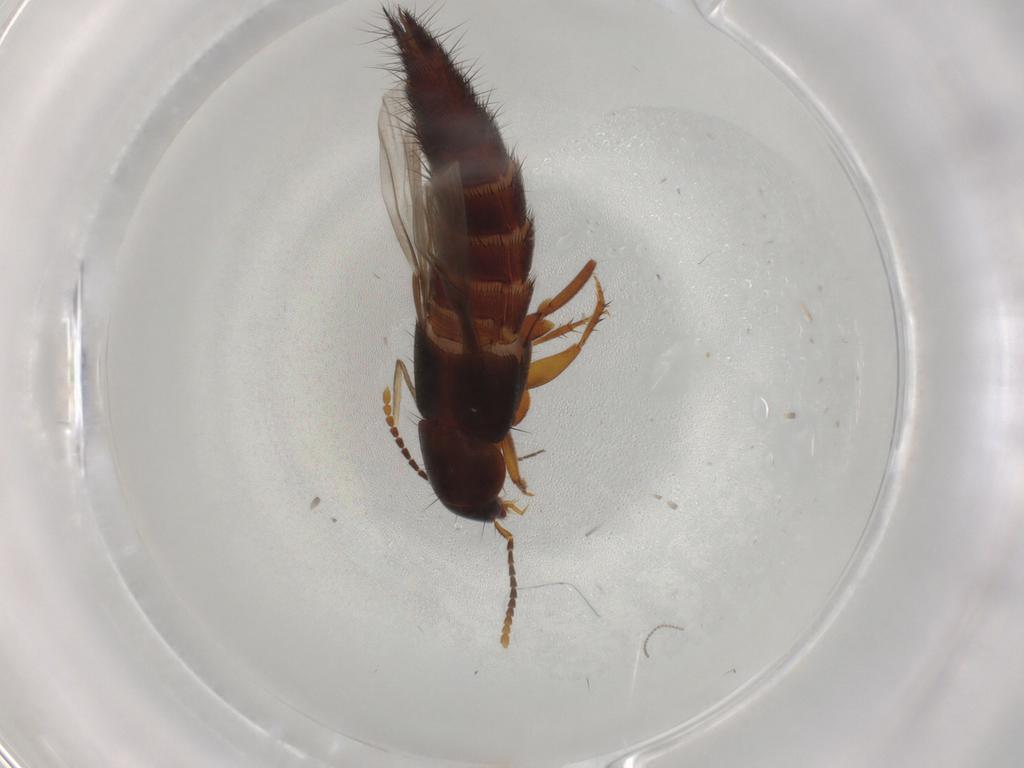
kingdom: Animalia
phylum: Arthropoda
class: Insecta
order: Coleoptera
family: Staphylinidae
